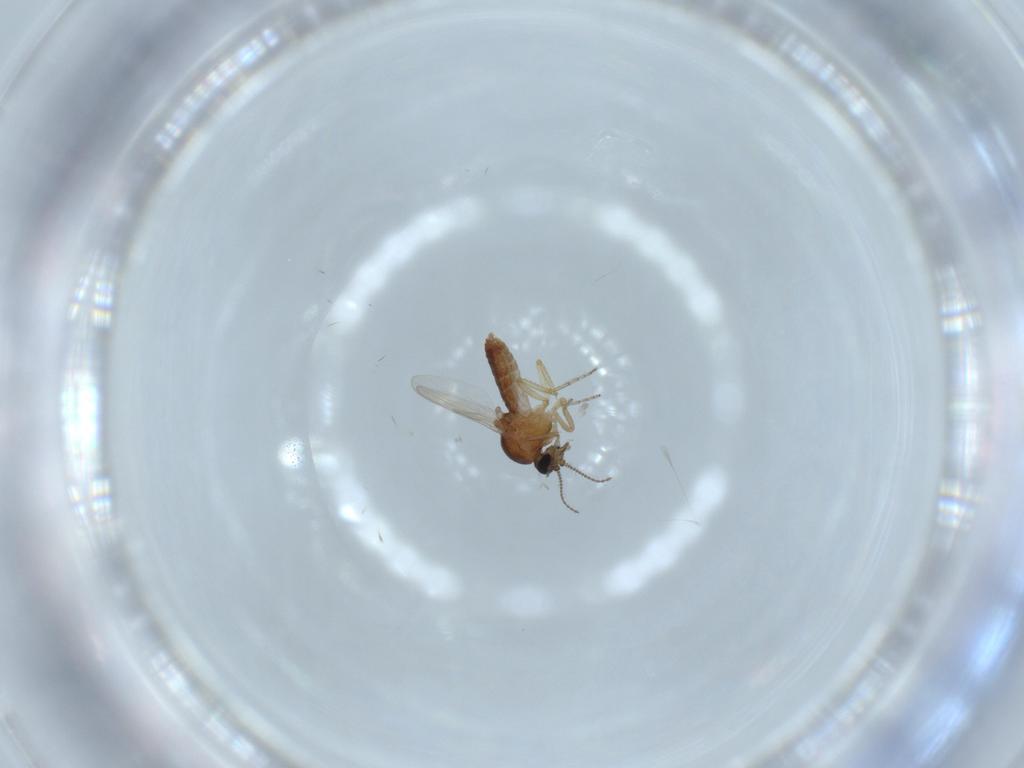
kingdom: Animalia
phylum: Arthropoda
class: Insecta
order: Diptera
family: Ceratopogonidae
